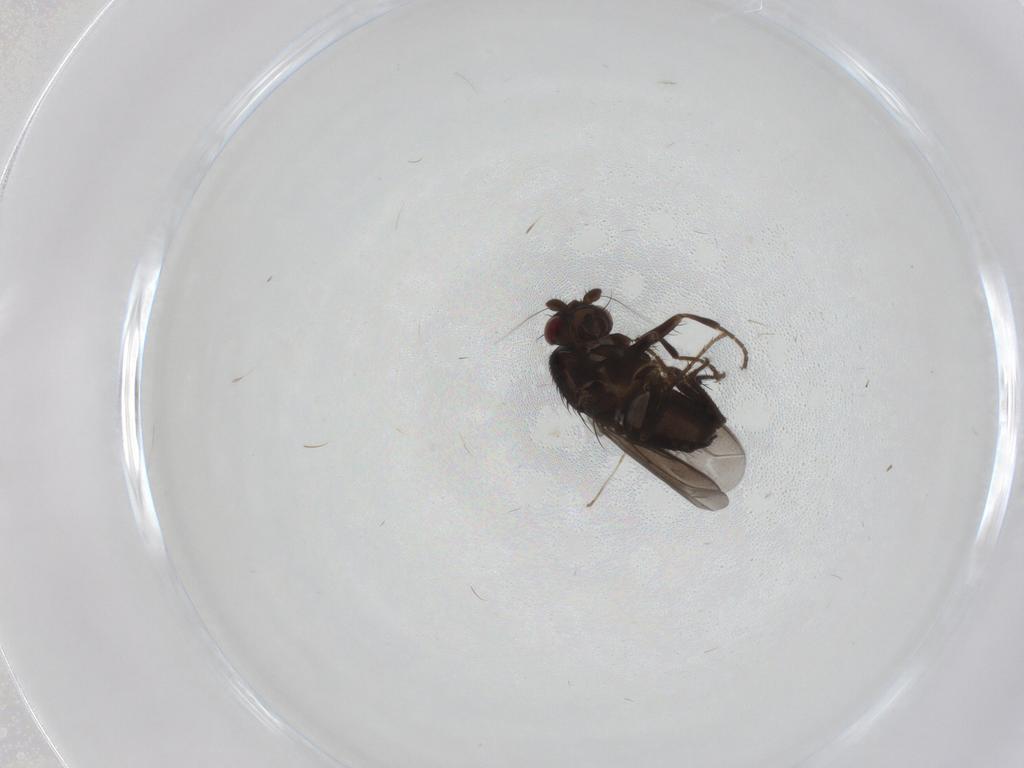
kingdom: Animalia
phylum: Arthropoda
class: Insecta
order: Diptera
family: Sphaeroceridae
